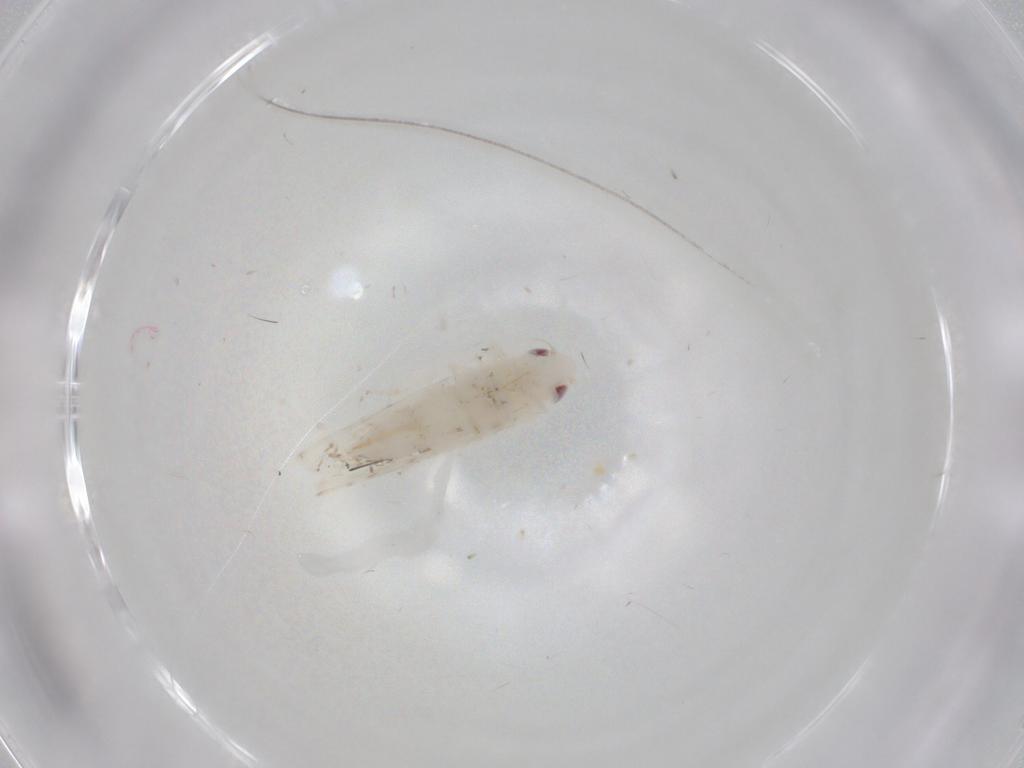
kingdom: Animalia
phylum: Arthropoda
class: Insecta
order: Hemiptera
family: Cicadellidae
